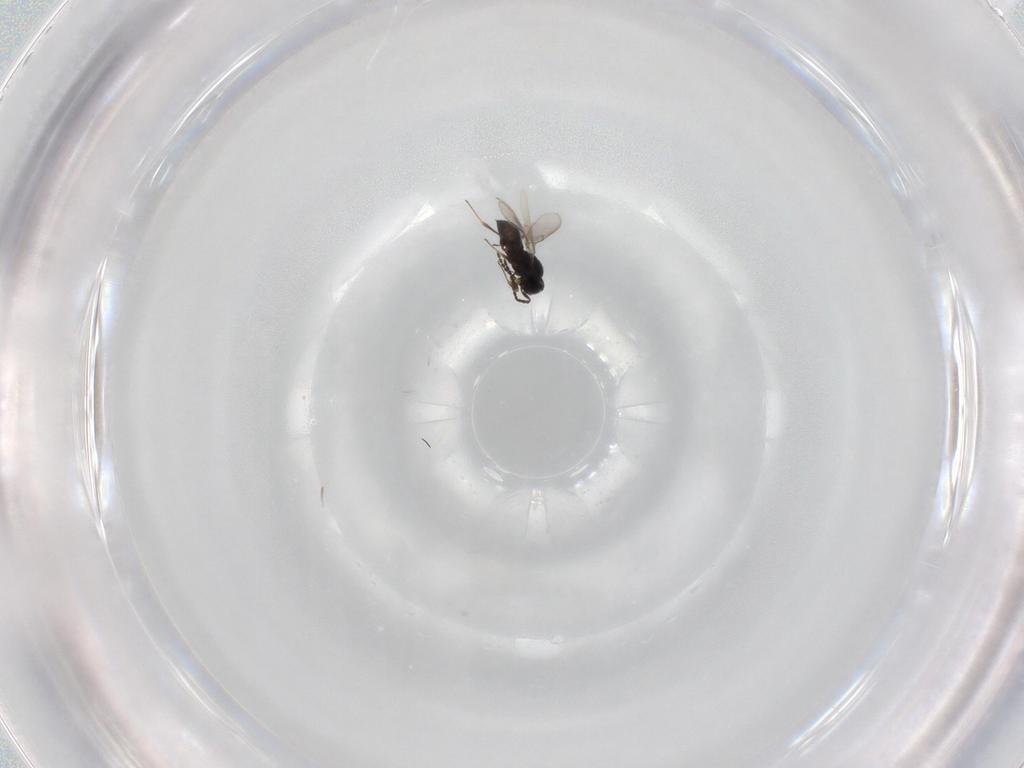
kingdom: Animalia
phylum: Arthropoda
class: Insecta
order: Hymenoptera
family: Scelionidae
